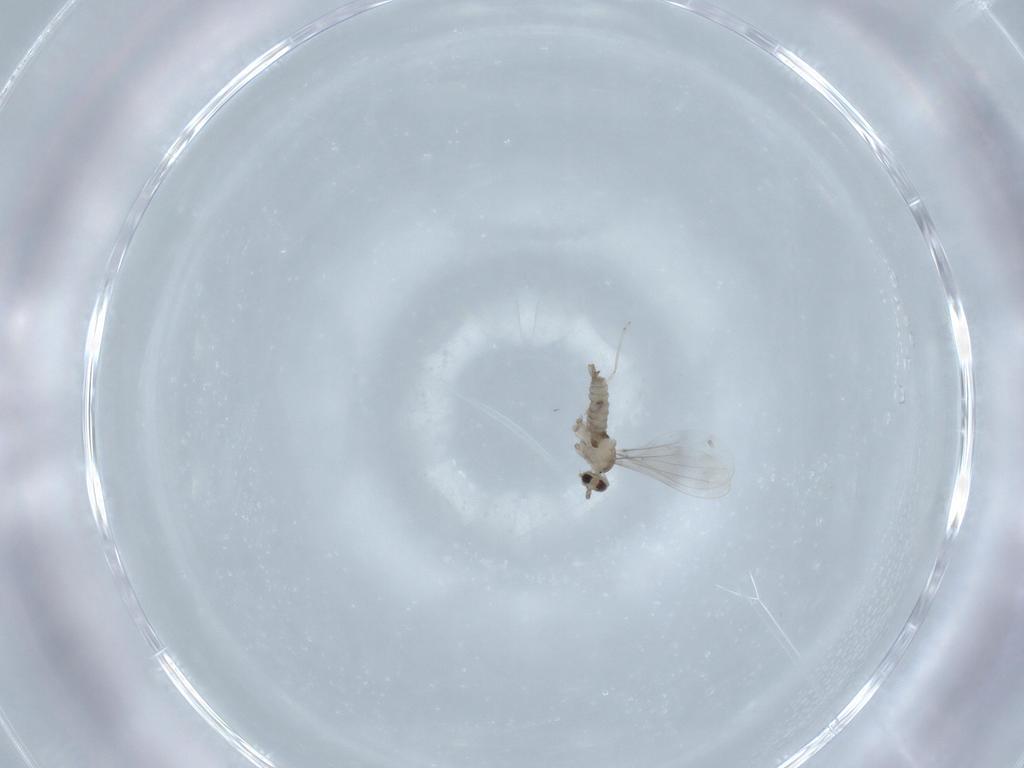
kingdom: Animalia
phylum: Arthropoda
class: Insecta
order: Diptera
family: Cecidomyiidae
